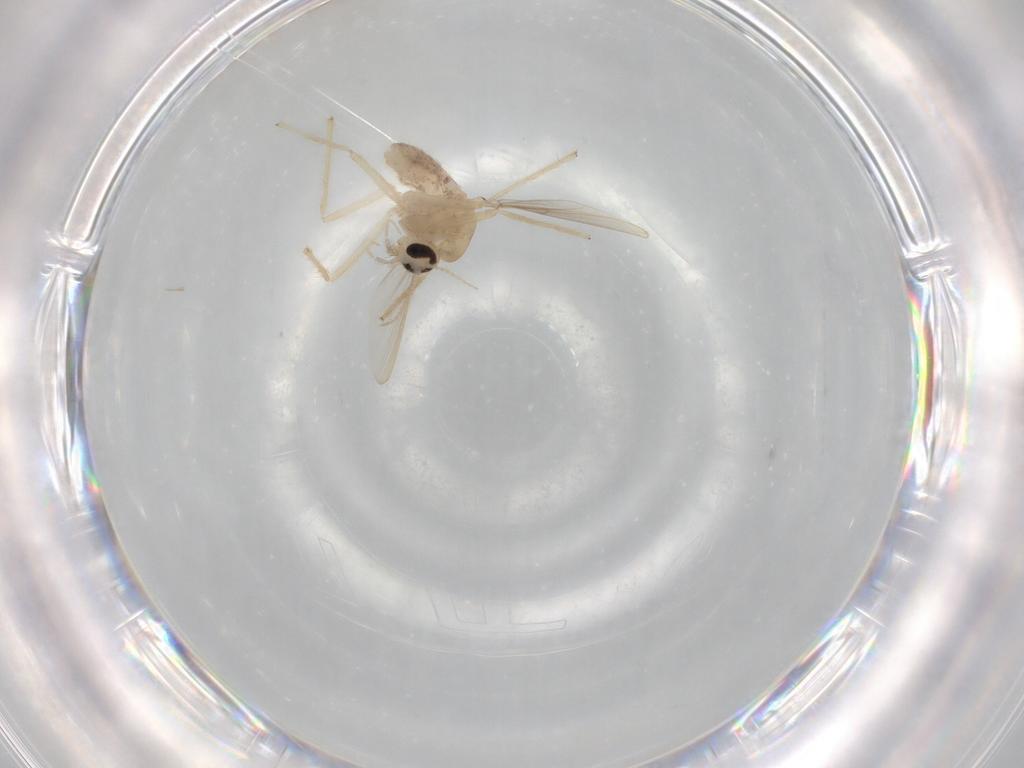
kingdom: Animalia
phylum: Arthropoda
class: Insecta
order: Diptera
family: Chironomidae
